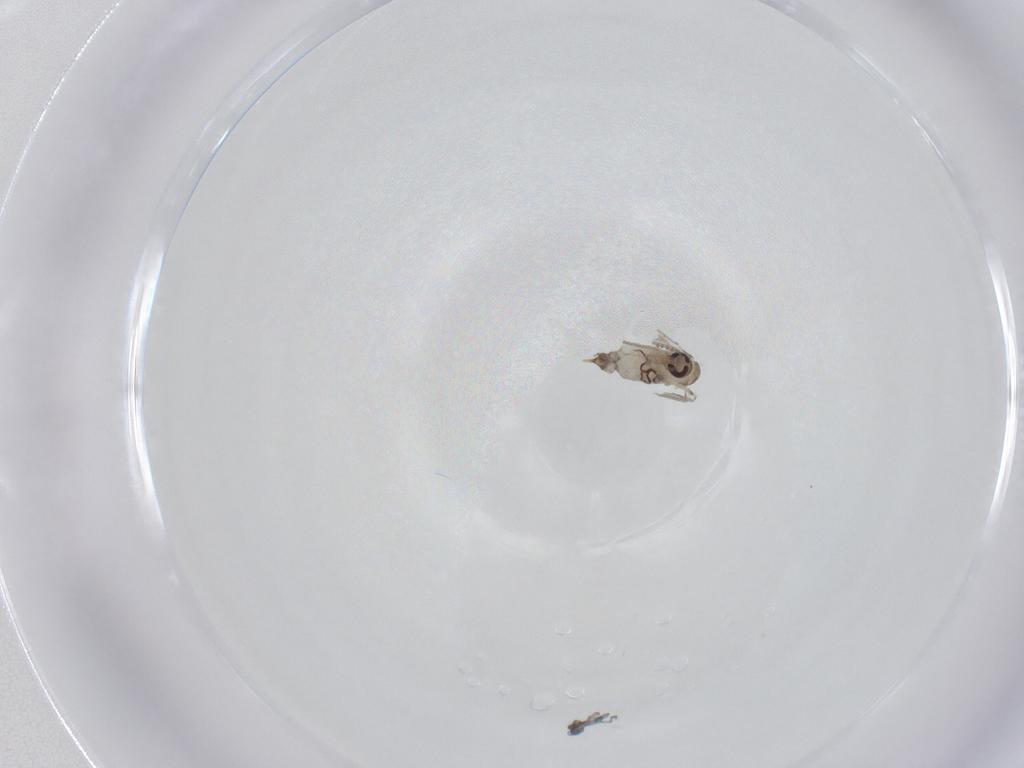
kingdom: Animalia
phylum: Arthropoda
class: Insecta
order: Diptera
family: Psychodidae
